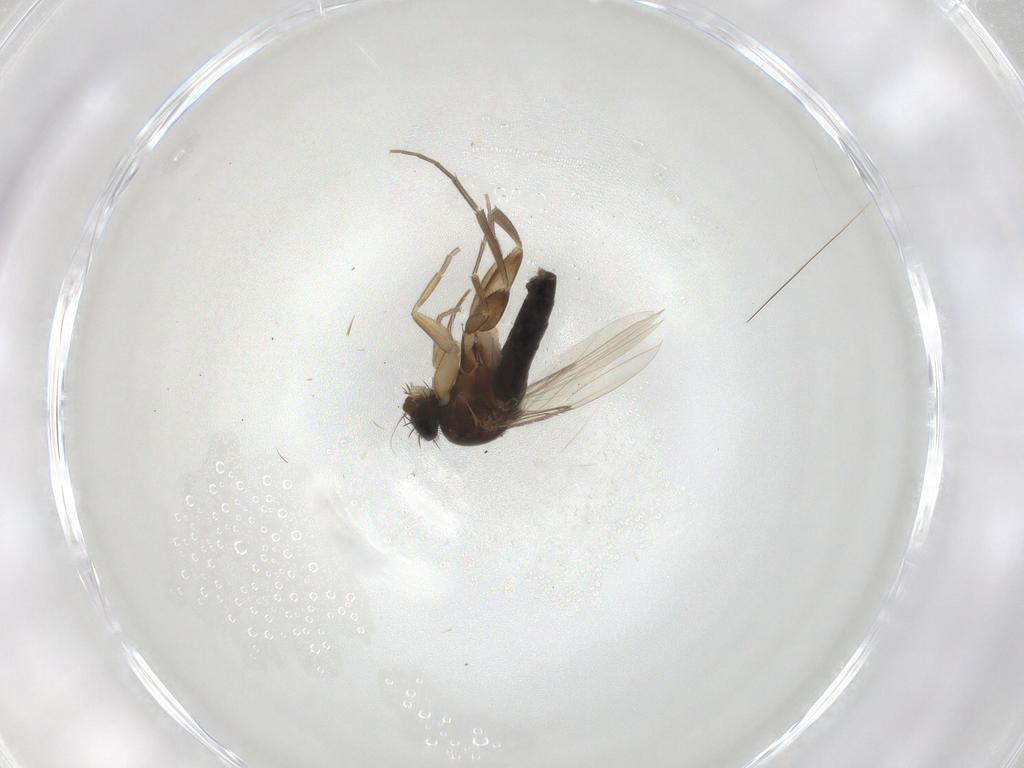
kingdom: Animalia
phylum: Arthropoda
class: Insecta
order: Diptera
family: Phoridae
